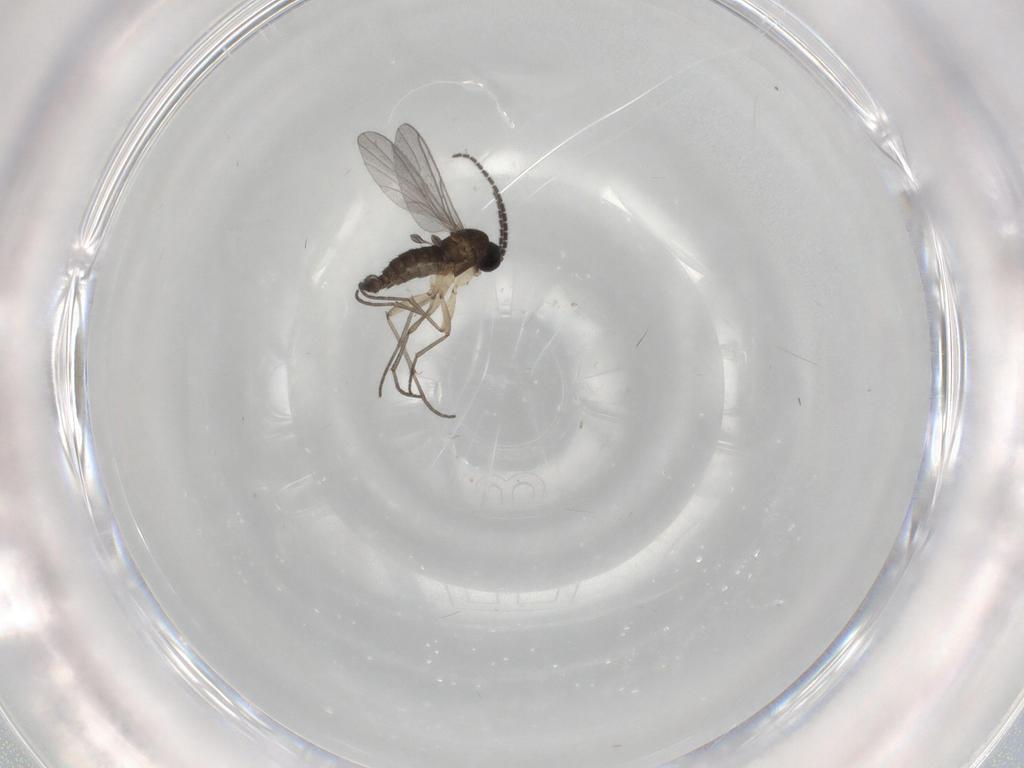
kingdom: Animalia
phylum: Arthropoda
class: Insecta
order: Diptera
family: Sciaridae
